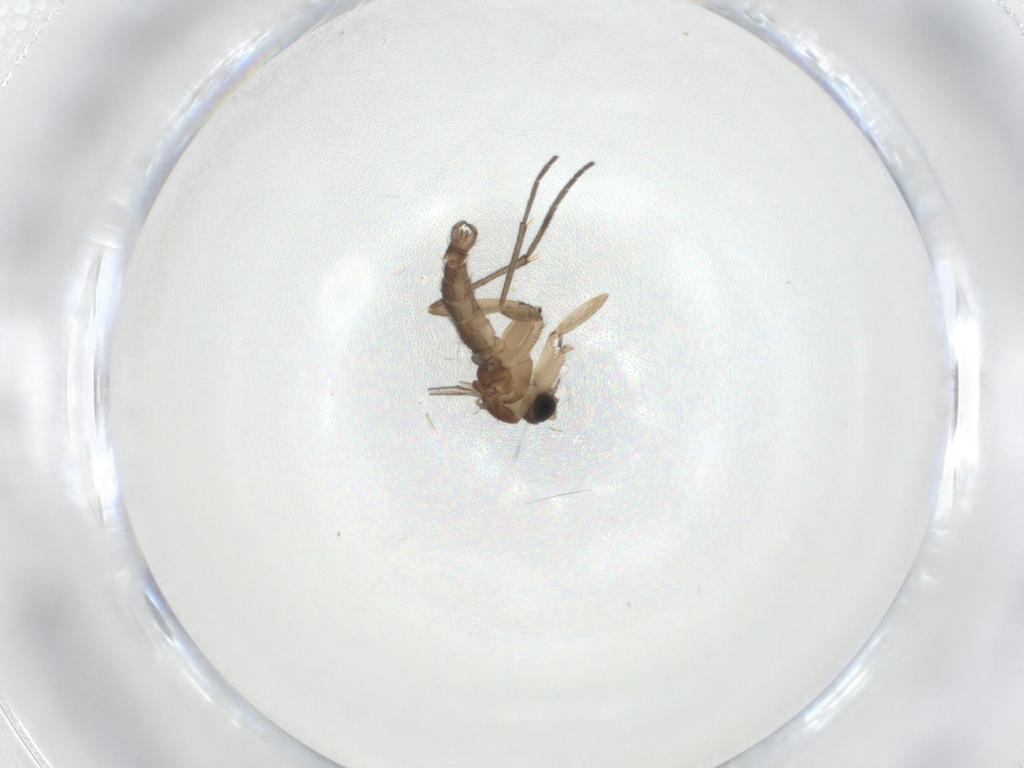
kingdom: Animalia
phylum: Arthropoda
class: Insecta
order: Diptera
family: Sciaridae
